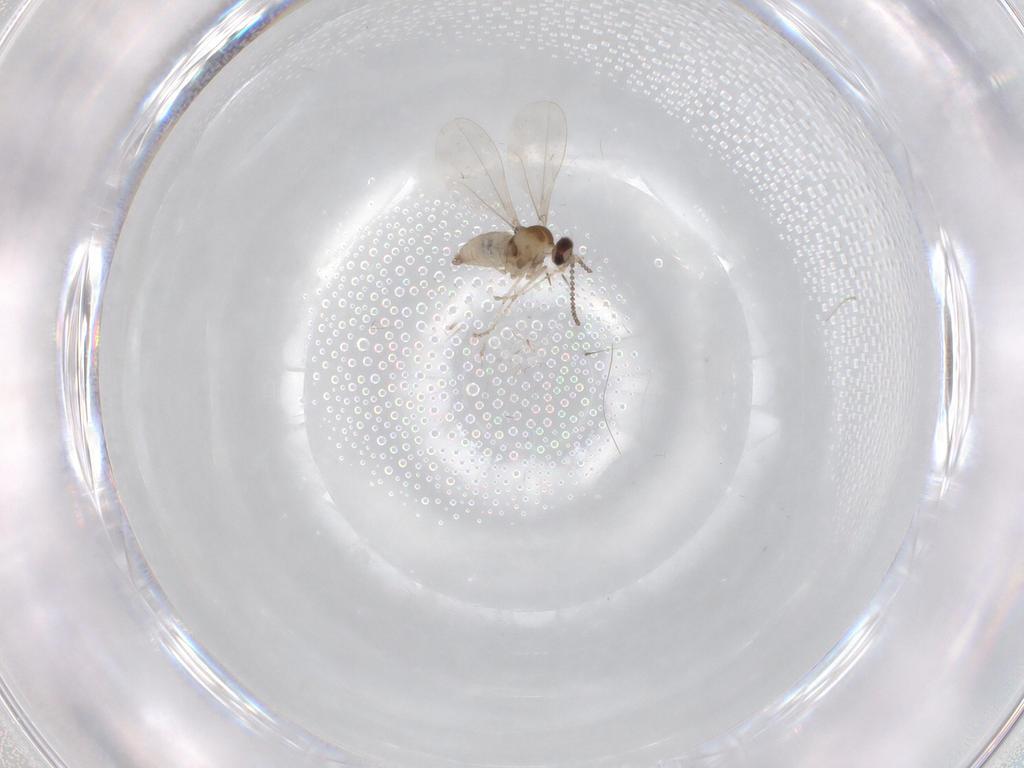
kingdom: Animalia
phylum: Arthropoda
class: Insecta
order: Diptera
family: Cecidomyiidae
